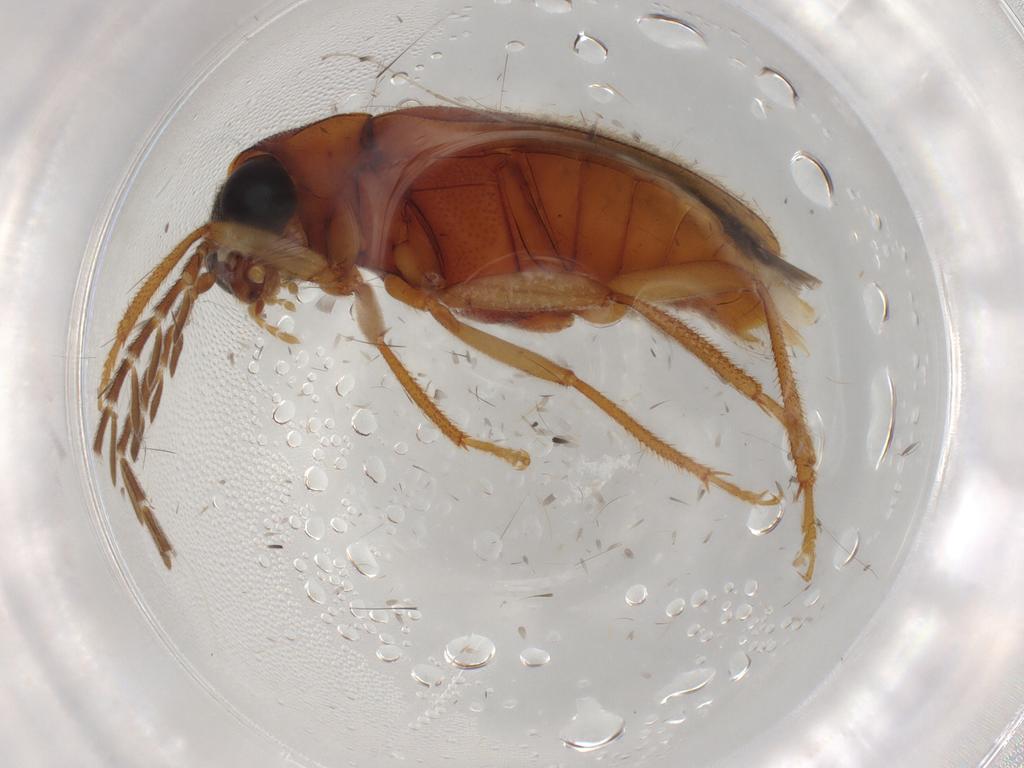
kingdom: Animalia
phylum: Arthropoda
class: Insecta
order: Coleoptera
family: Ptilodactylidae
